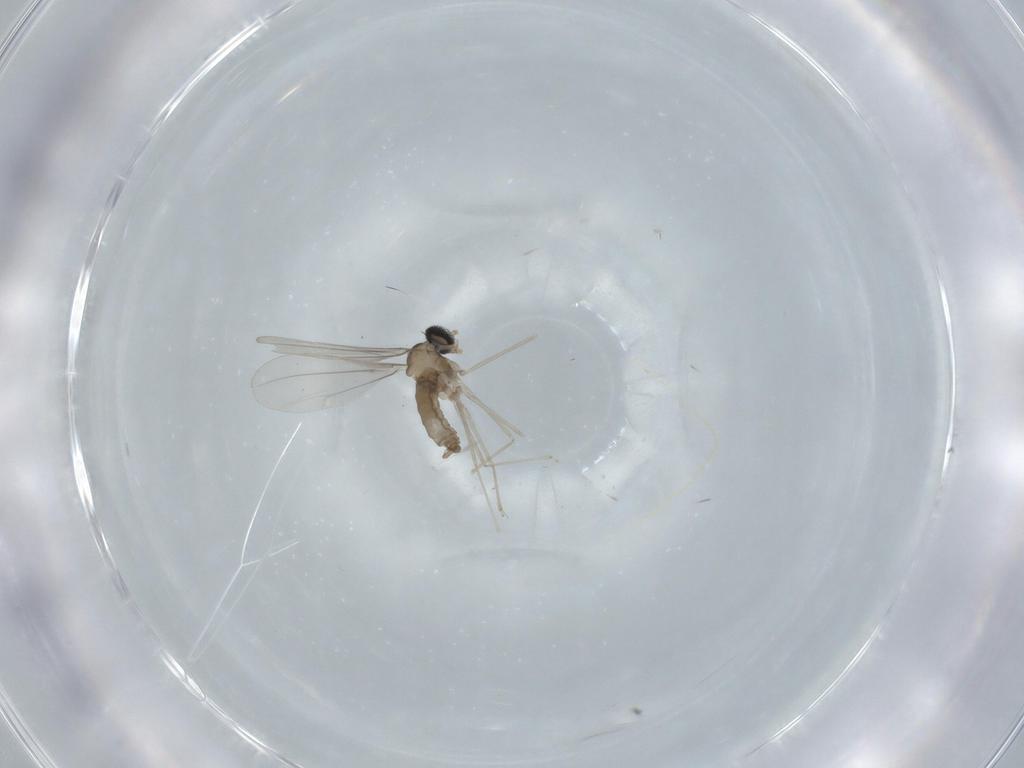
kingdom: Animalia
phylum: Arthropoda
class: Insecta
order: Diptera
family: Cecidomyiidae
